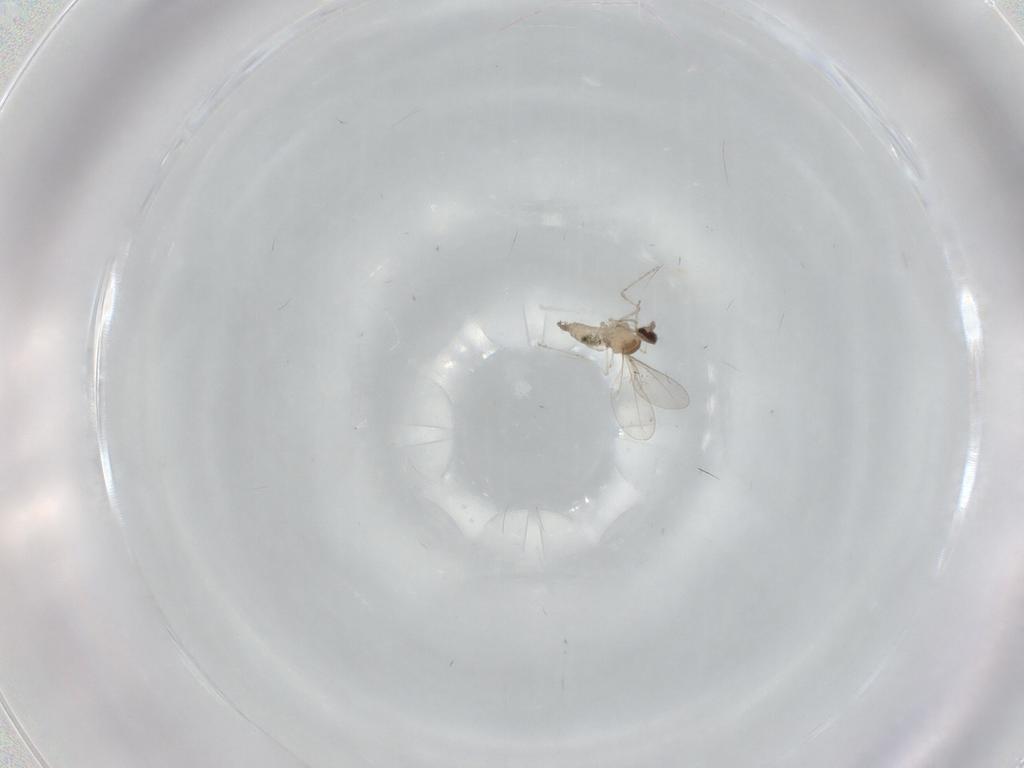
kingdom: Animalia
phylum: Arthropoda
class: Insecta
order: Diptera
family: Cecidomyiidae
